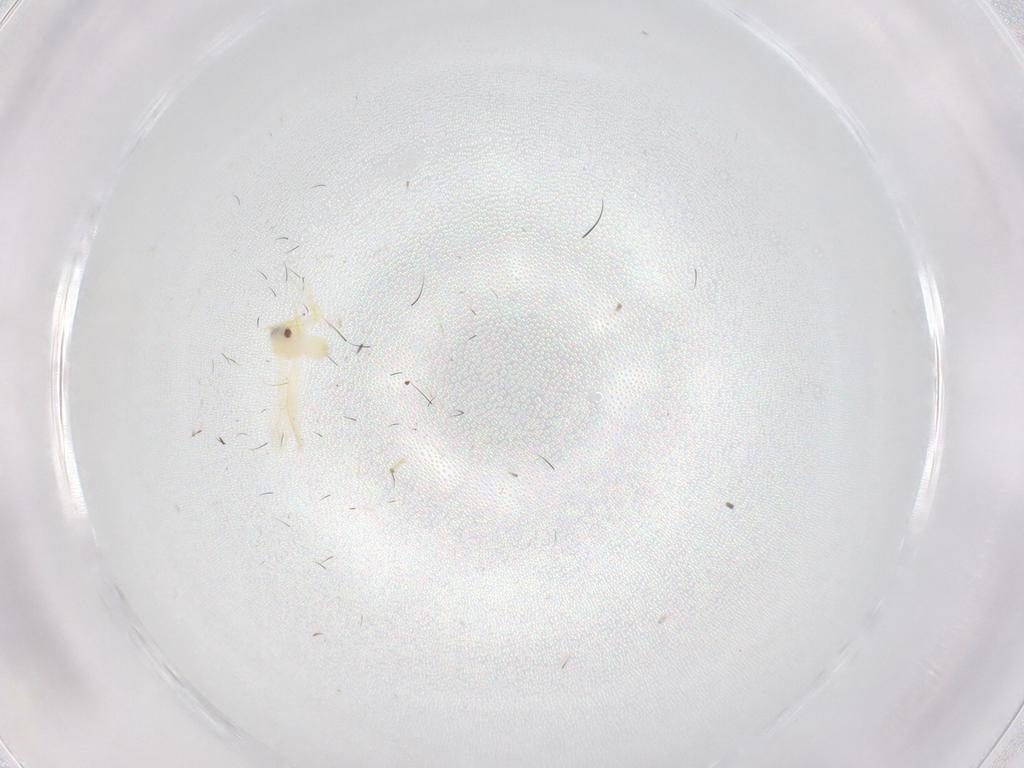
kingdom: Animalia
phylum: Arthropoda
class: Insecta
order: Hemiptera
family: Aleyrodidae
